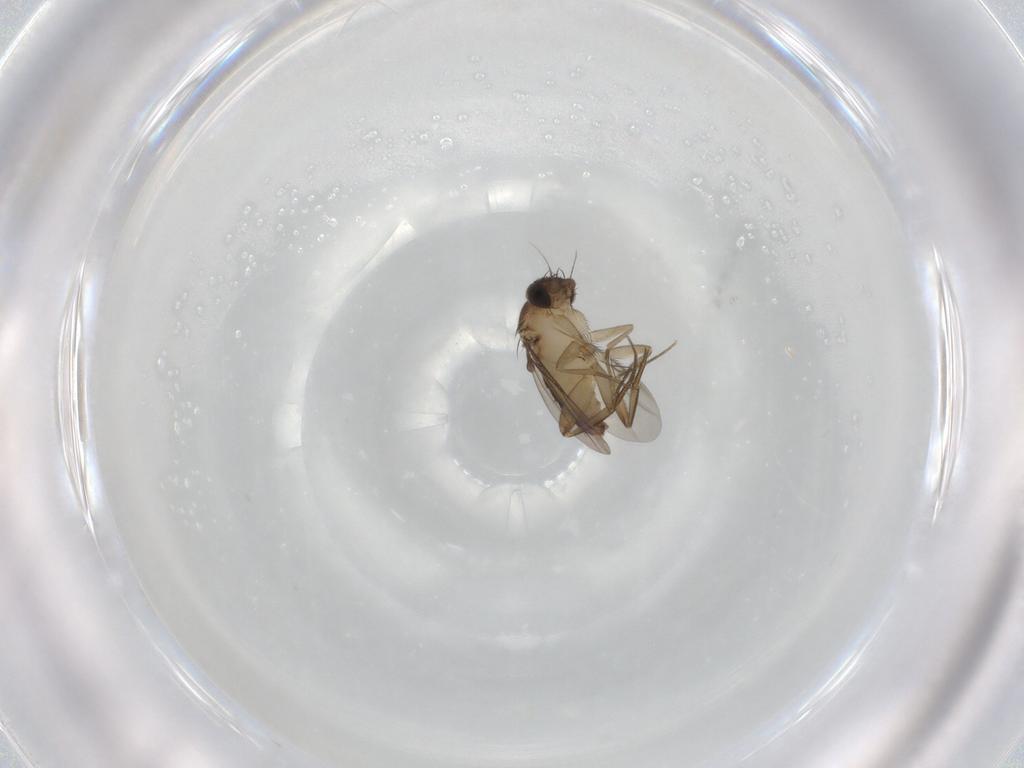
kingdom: Animalia
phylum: Arthropoda
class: Insecta
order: Diptera
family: Phoridae
